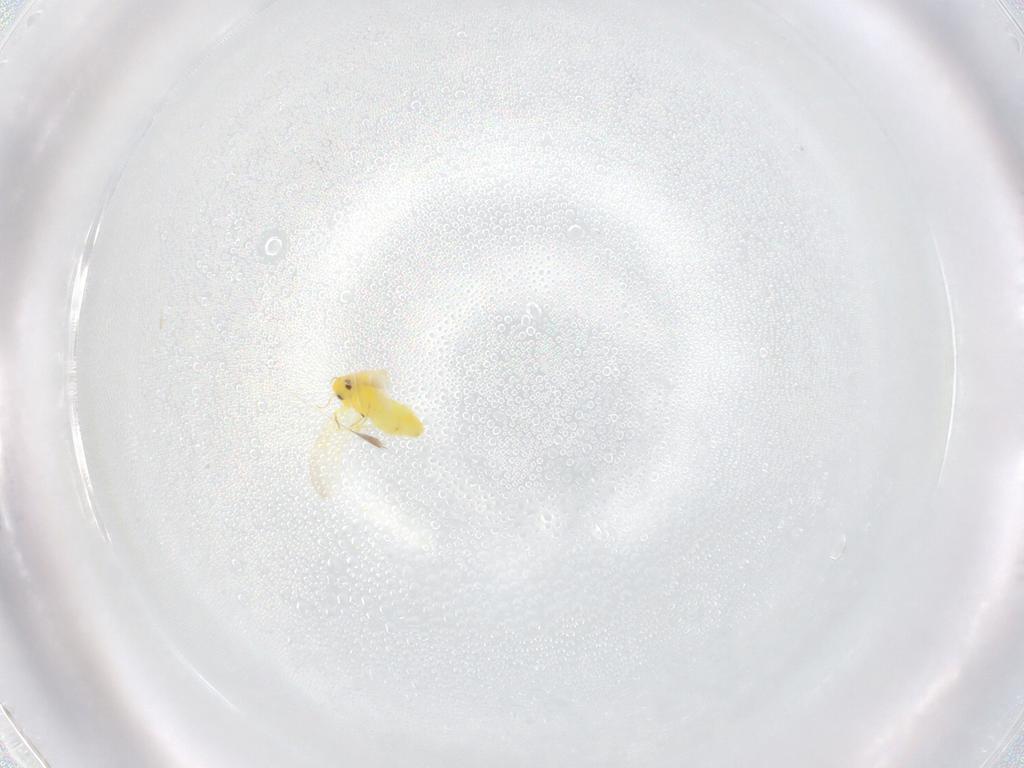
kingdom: Animalia
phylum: Arthropoda
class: Insecta
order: Hemiptera
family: Aleyrodidae
